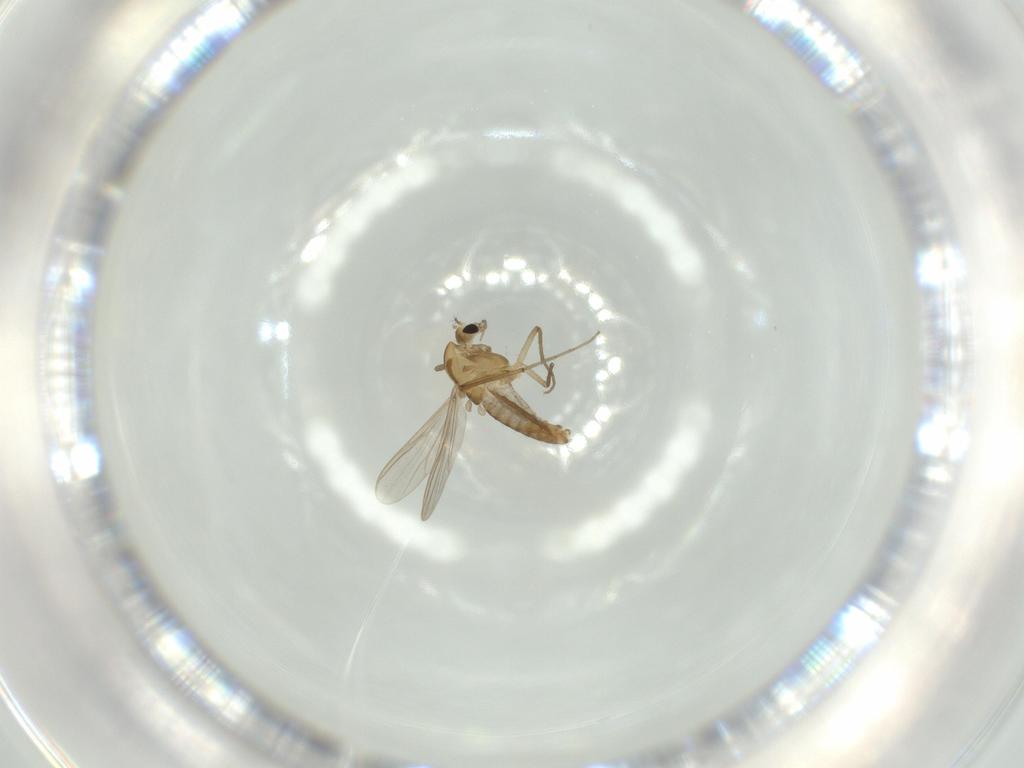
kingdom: Animalia
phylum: Arthropoda
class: Insecta
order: Diptera
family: Chironomidae
